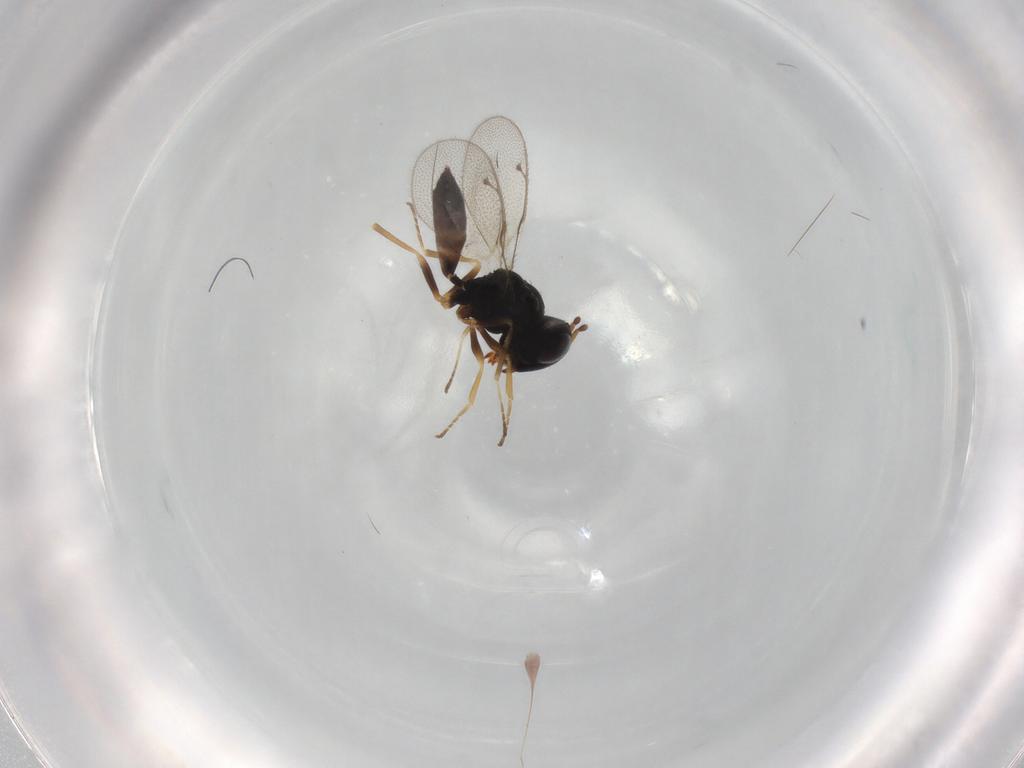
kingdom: Animalia
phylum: Arthropoda
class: Insecta
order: Hymenoptera
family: Pteromalidae
